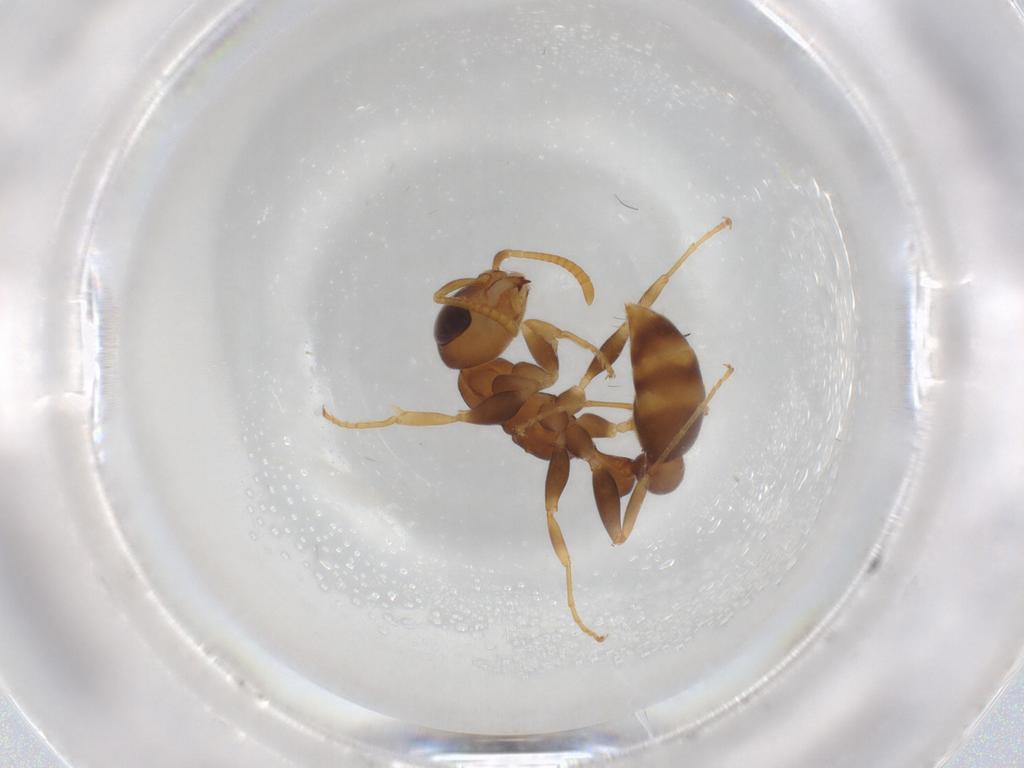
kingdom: Animalia
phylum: Arthropoda
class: Insecta
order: Hymenoptera
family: Formicidae
